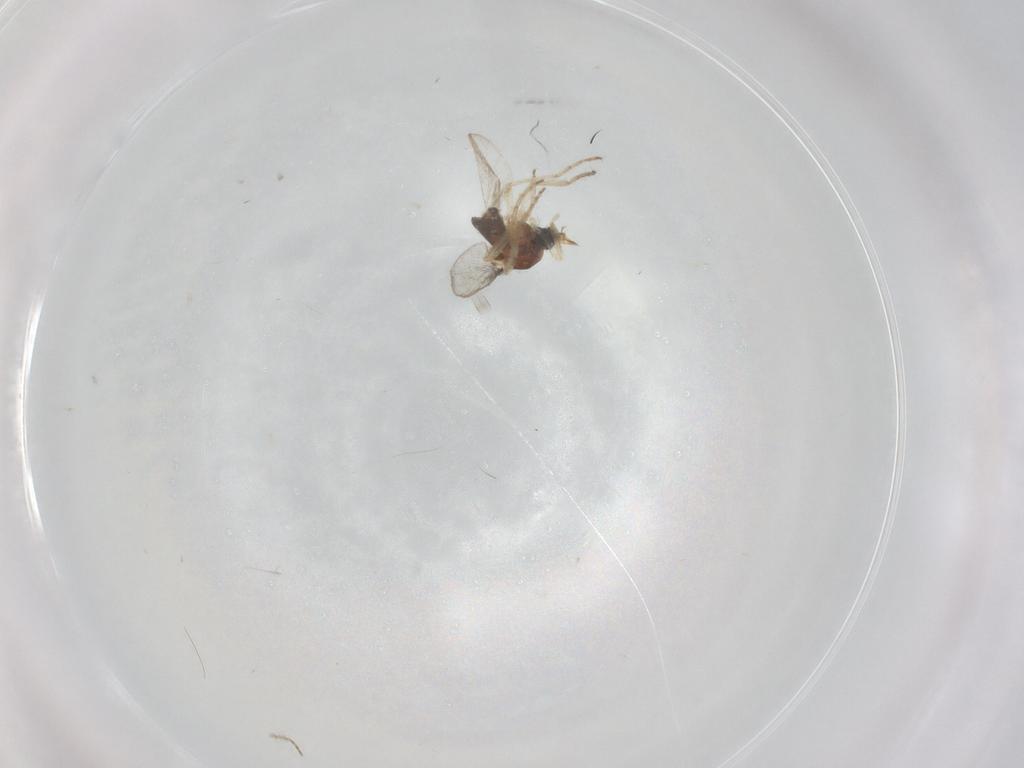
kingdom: Animalia
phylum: Arthropoda
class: Insecta
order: Diptera
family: Ceratopogonidae
